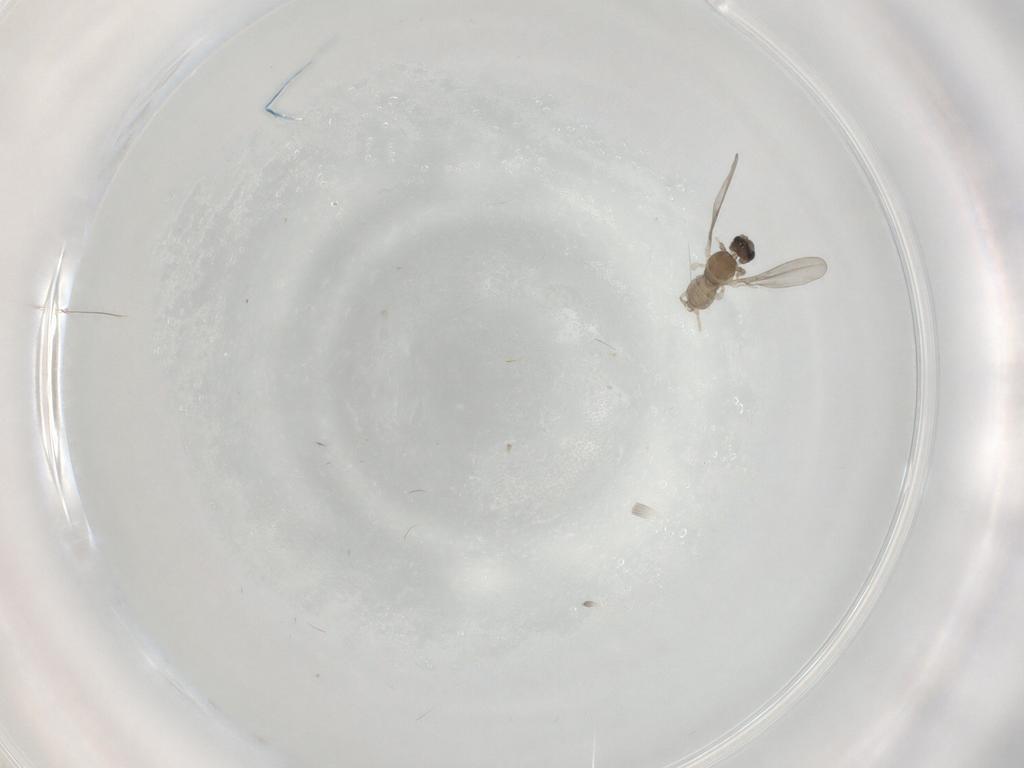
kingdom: Animalia
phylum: Arthropoda
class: Insecta
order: Diptera
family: Cecidomyiidae
